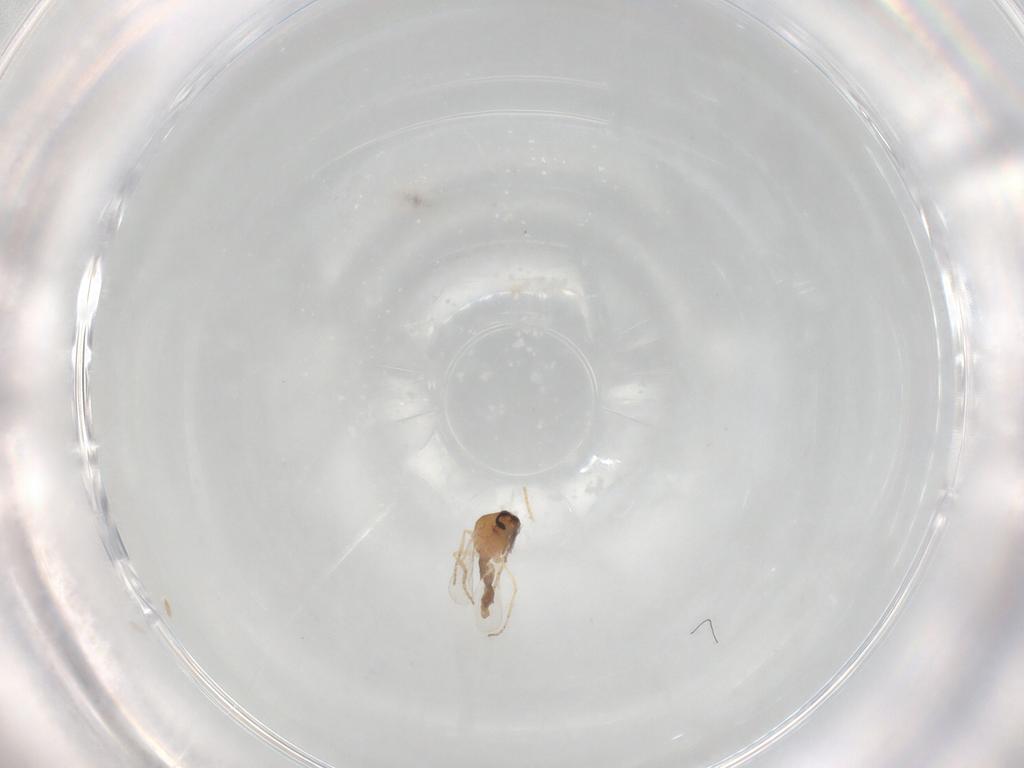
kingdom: Animalia
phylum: Arthropoda
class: Insecta
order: Diptera
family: Ceratopogonidae
